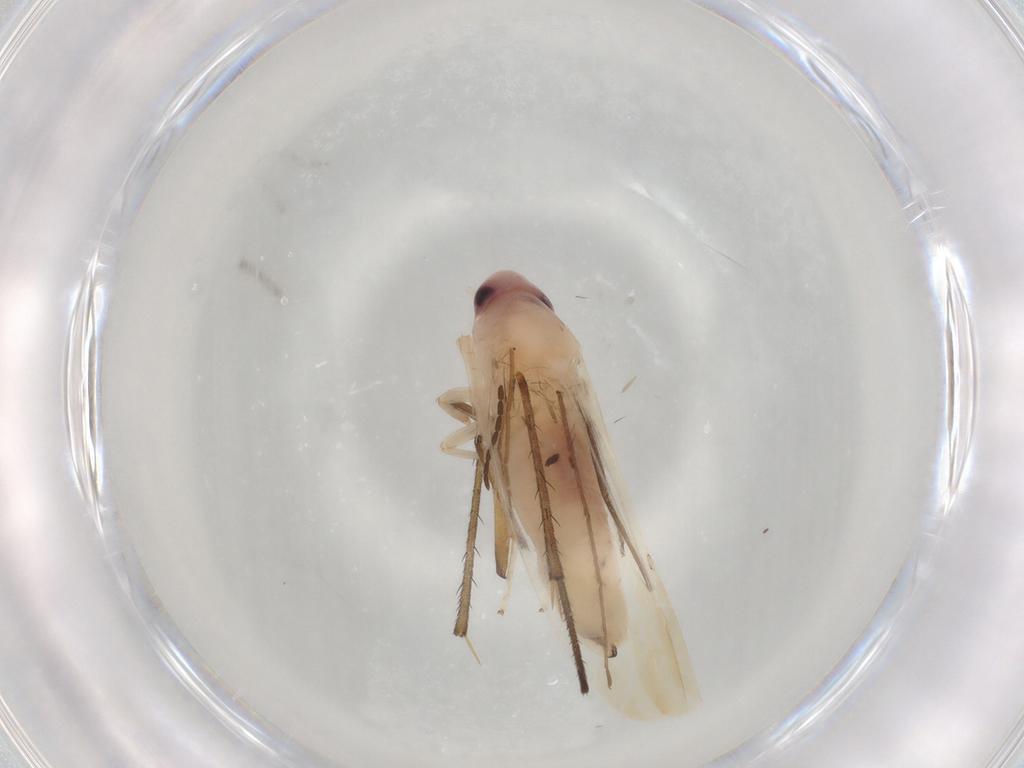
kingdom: Animalia
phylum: Arthropoda
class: Insecta
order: Hemiptera
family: Cicadellidae
